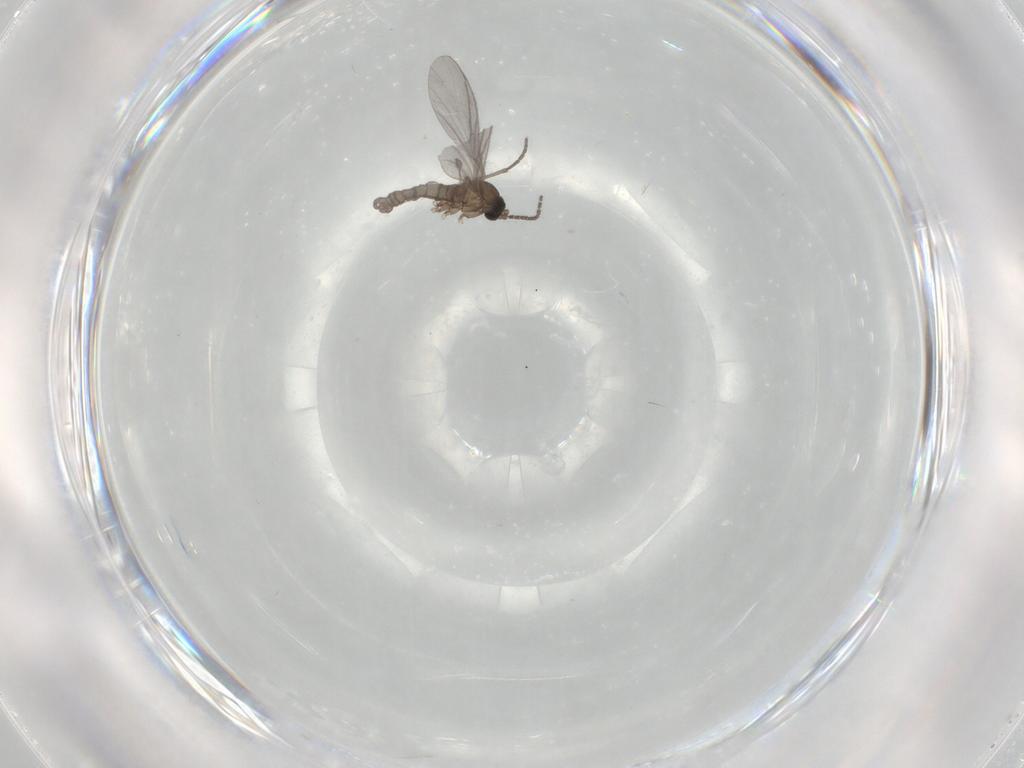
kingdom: Animalia
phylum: Arthropoda
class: Insecta
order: Diptera
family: Sciaridae
